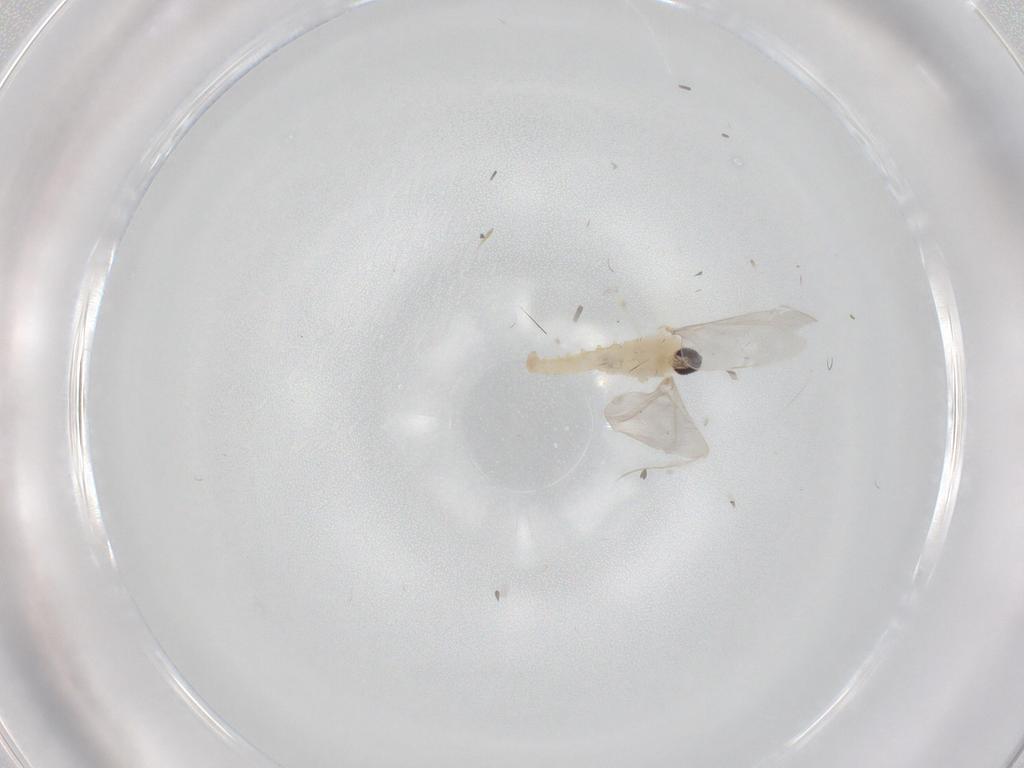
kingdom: Animalia
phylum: Arthropoda
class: Insecta
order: Diptera
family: Cecidomyiidae
